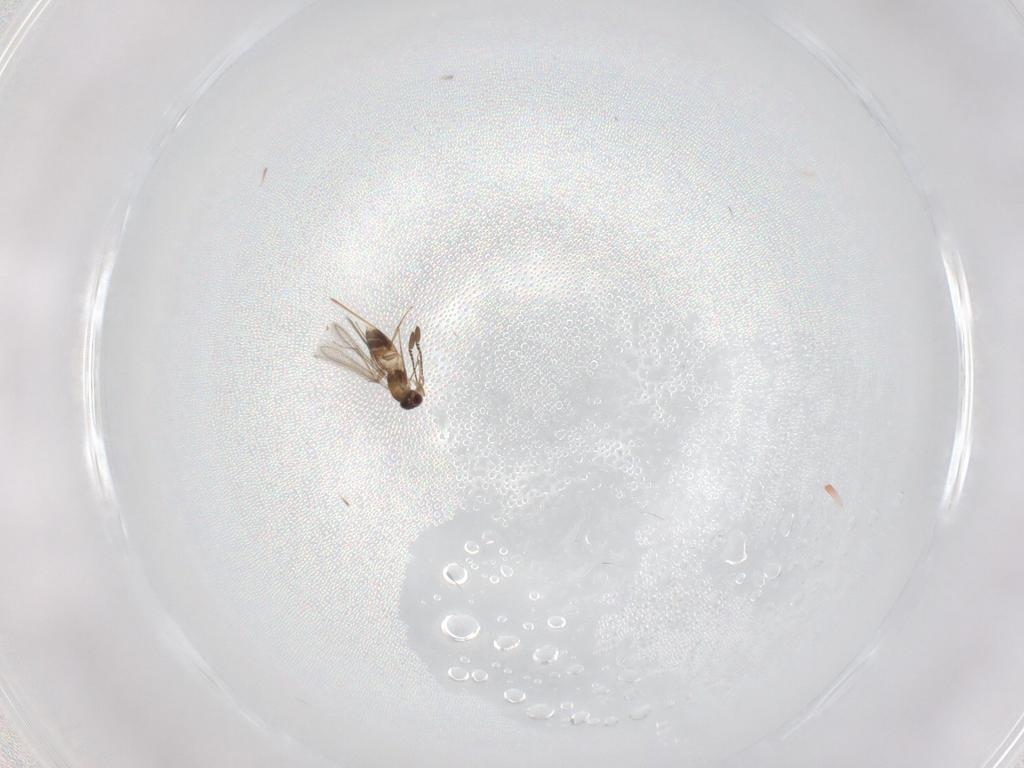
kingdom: Animalia
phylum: Arthropoda
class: Insecta
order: Hymenoptera
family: Mymaridae
